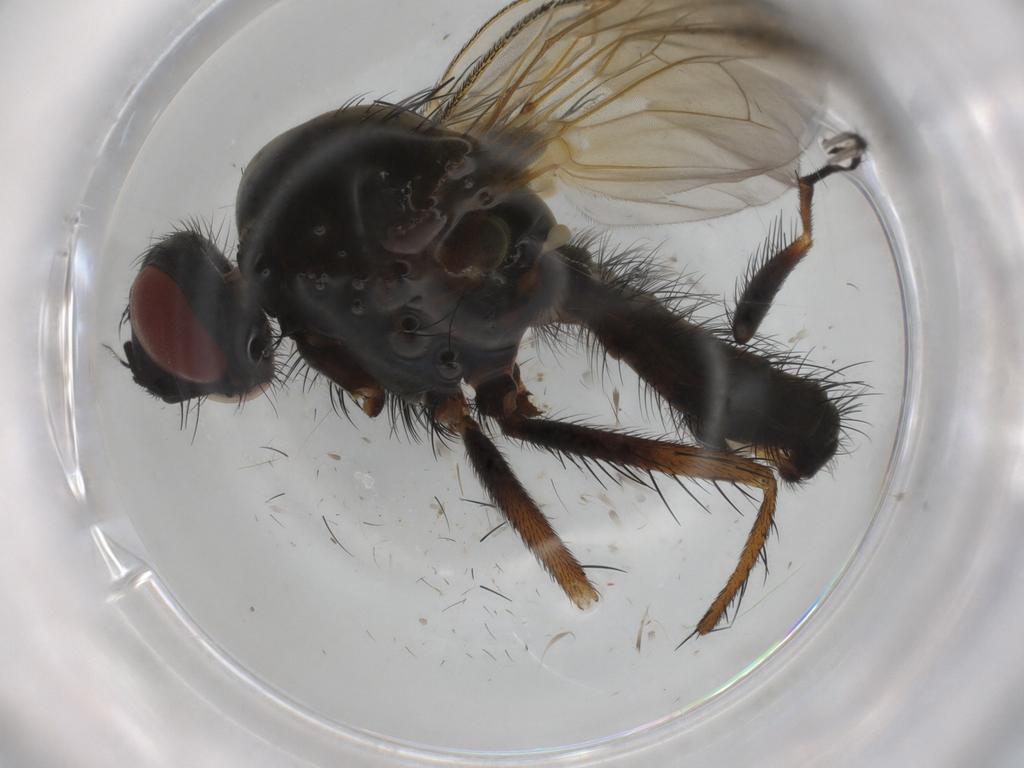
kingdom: Animalia
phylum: Arthropoda
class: Insecta
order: Diptera
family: Anthomyiidae
